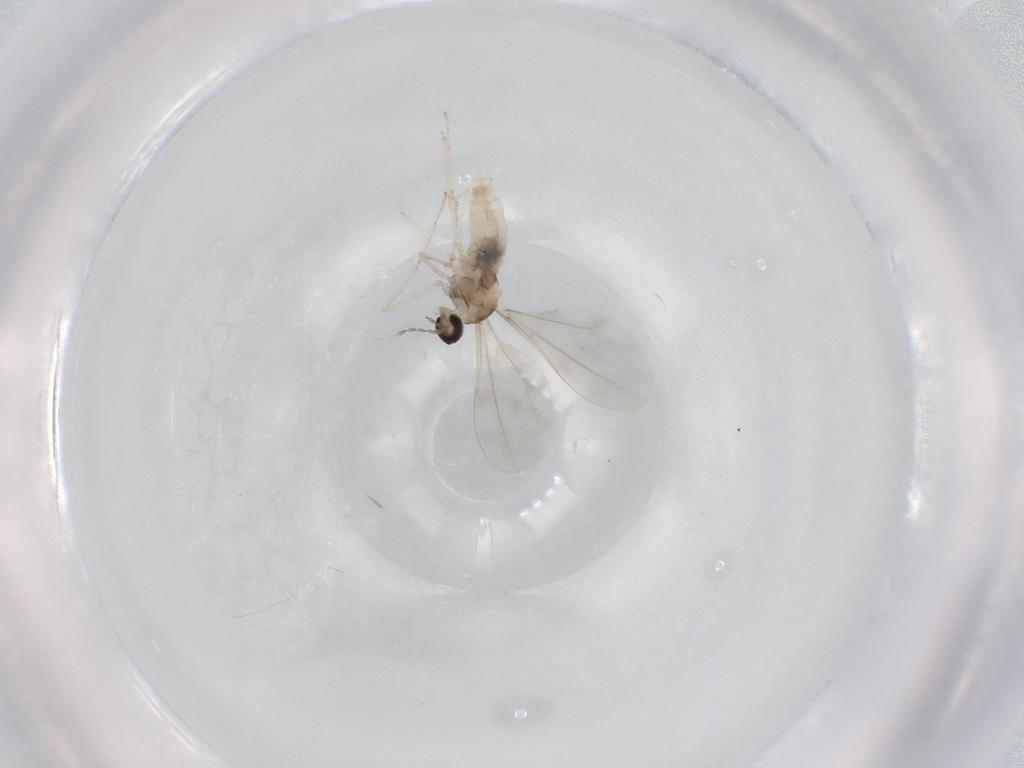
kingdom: Animalia
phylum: Arthropoda
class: Insecta
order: Diptera
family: Cecidomyiidae
